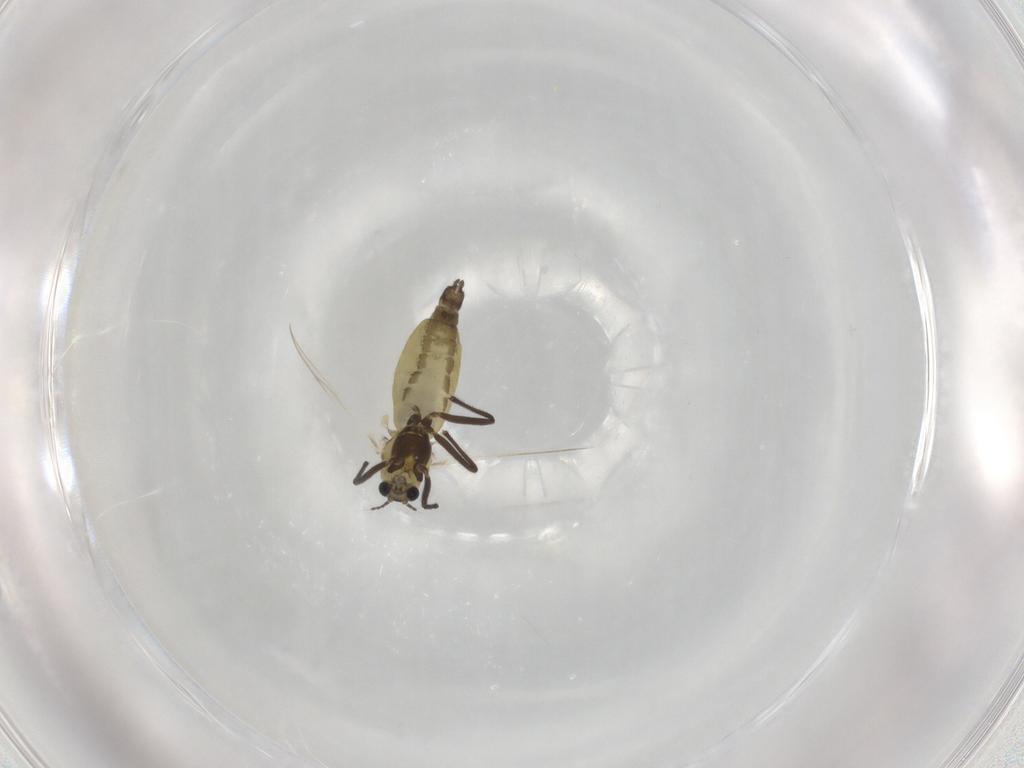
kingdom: Animalia
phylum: Arthropoda
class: Insecta
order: Diptera
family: Chironomidae
